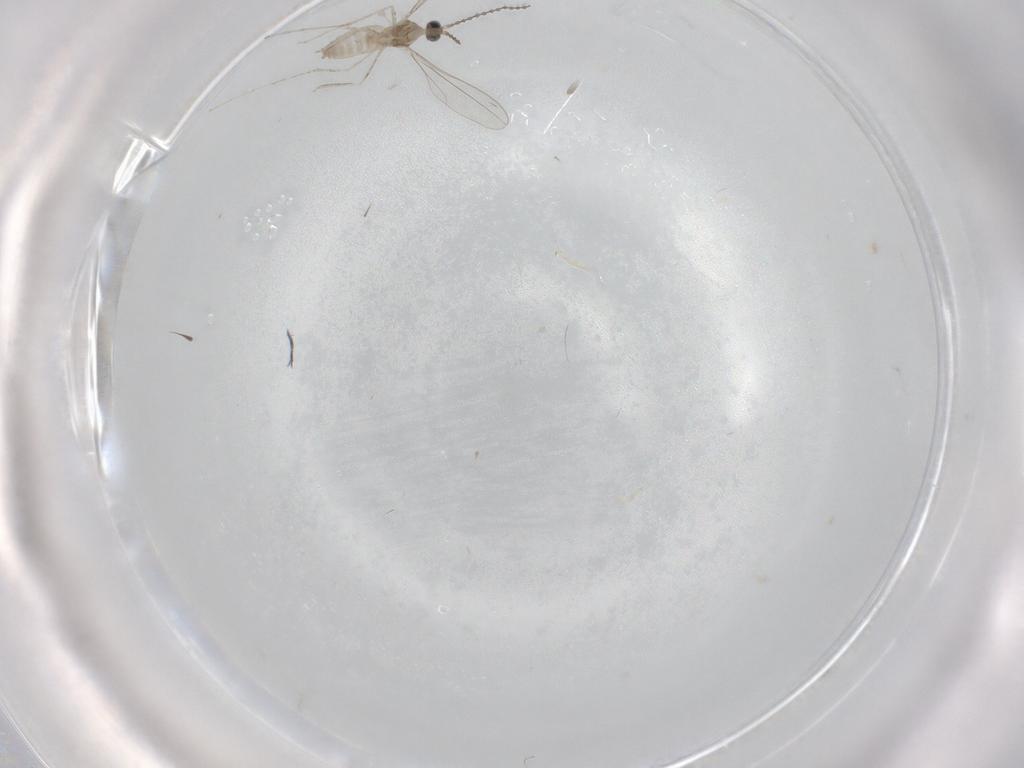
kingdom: Animalia
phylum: Arthropoda
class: Insecta
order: Diptera
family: Cecidomyiidae
